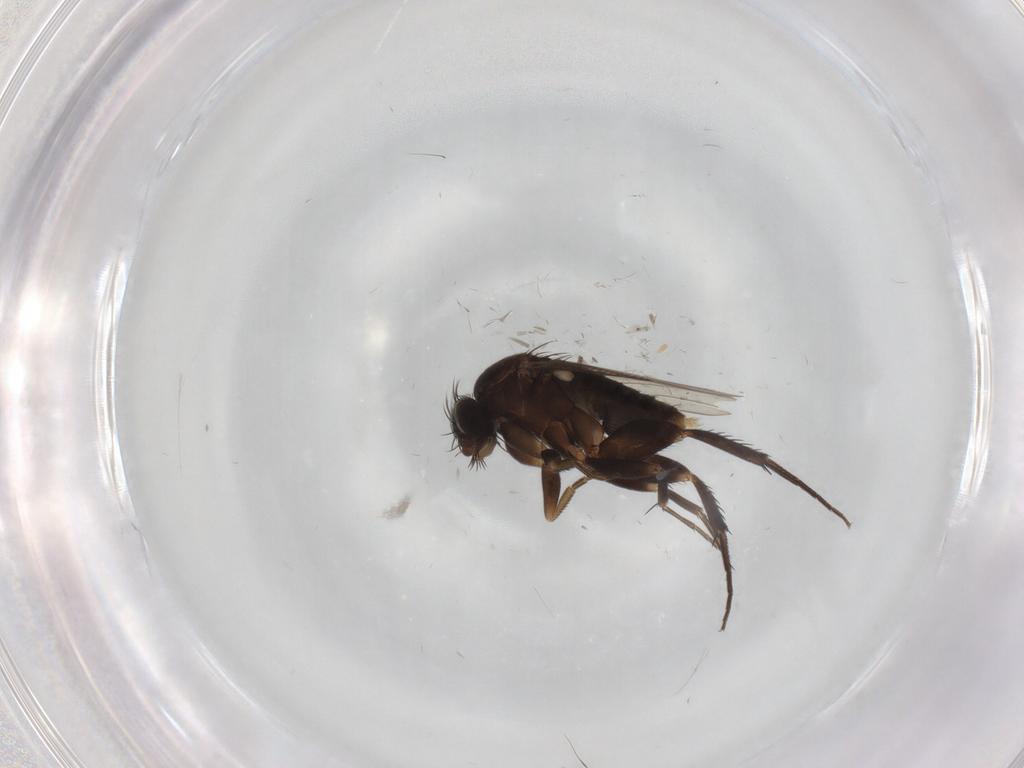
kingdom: Animalia
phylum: Arthropoda
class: Insecta
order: Diptera
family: Phoridae
